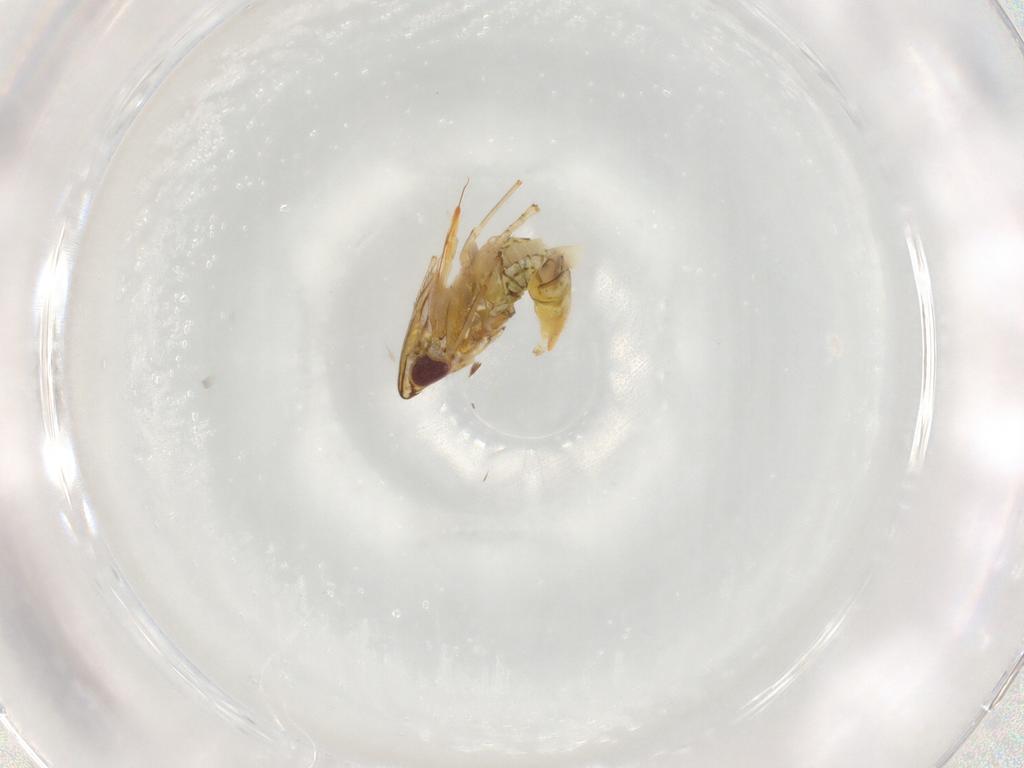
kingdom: Animalia
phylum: Arthropoda
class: Insecta
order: Hemiptera
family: Cicadellidae
